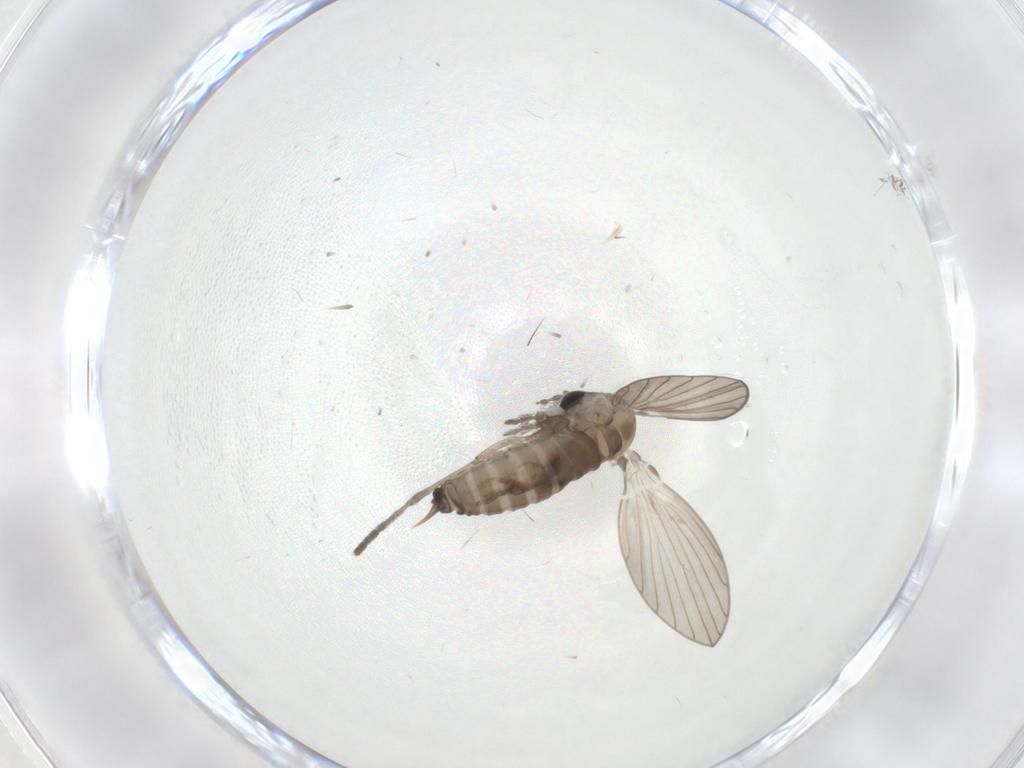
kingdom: Animalia
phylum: Arthropoda
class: Insecta
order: Diptera
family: Psychodidae
